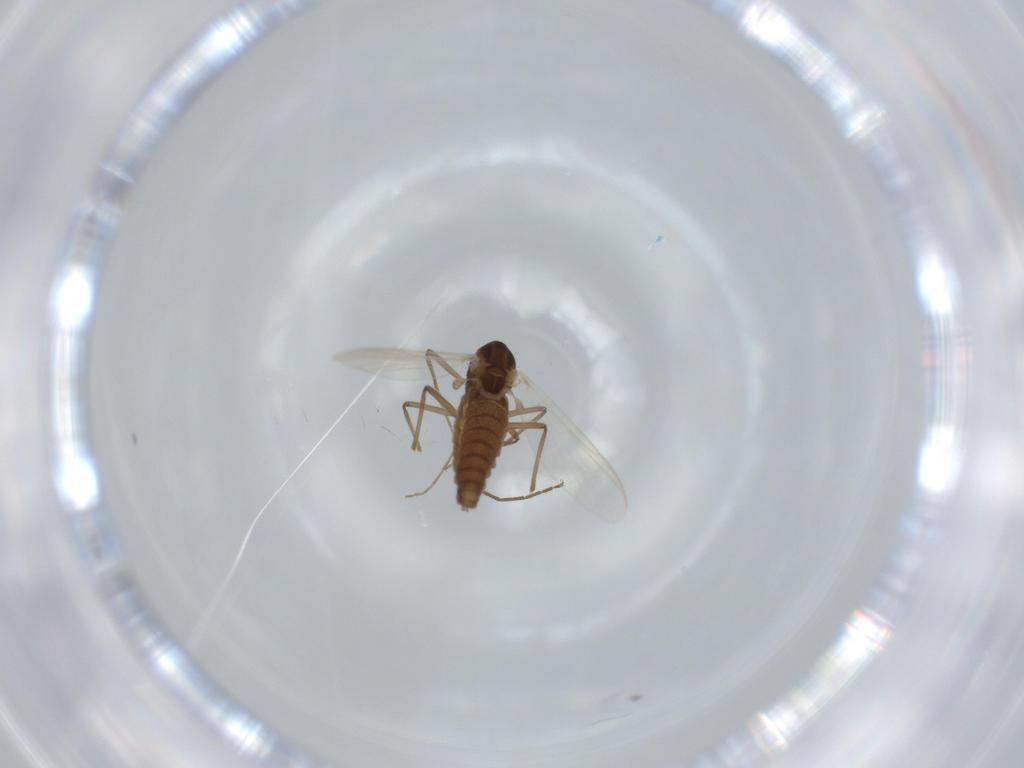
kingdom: Animalia
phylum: Arthropoda
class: Insecta
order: Diptera
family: Chironomidae
